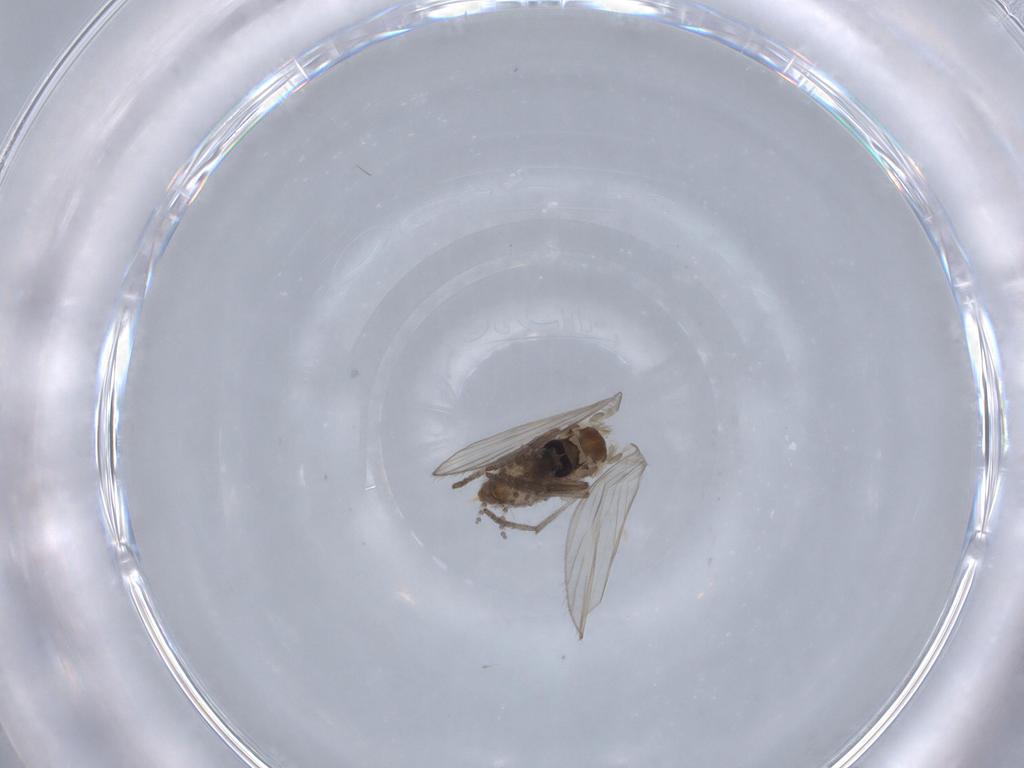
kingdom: Animalia
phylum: Arthropoda
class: Insecta
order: Diptera
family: Psychodidae
